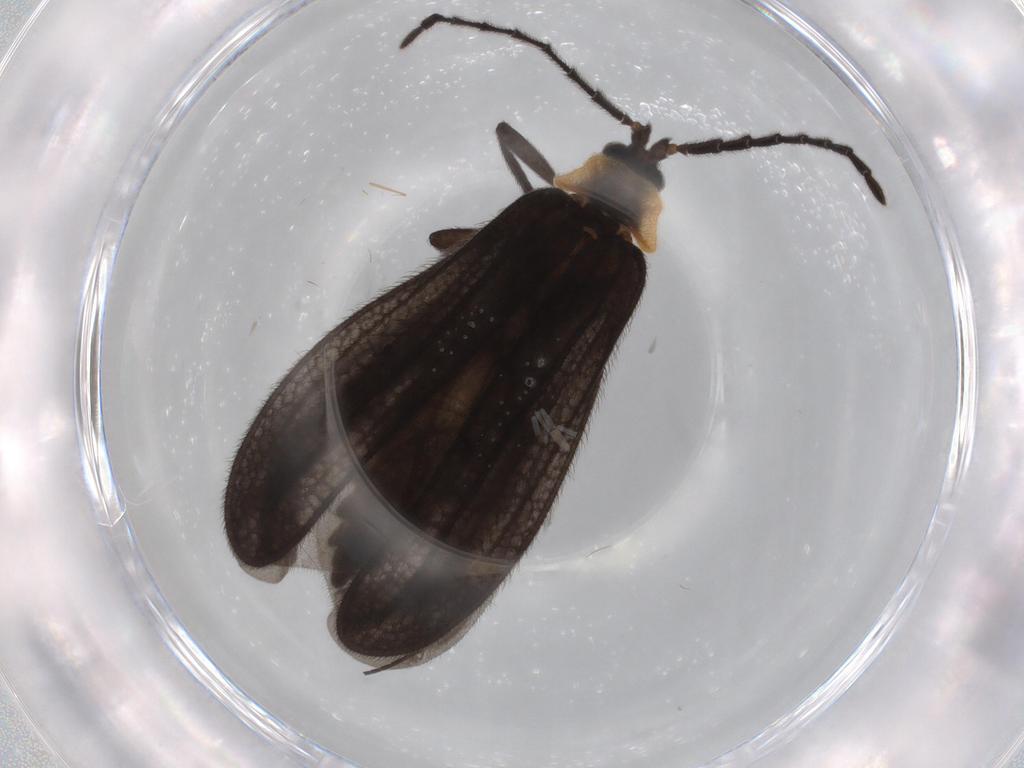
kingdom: Animalia
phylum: Arthropoda
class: Insecta
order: Coleoptera
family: Lycidae
